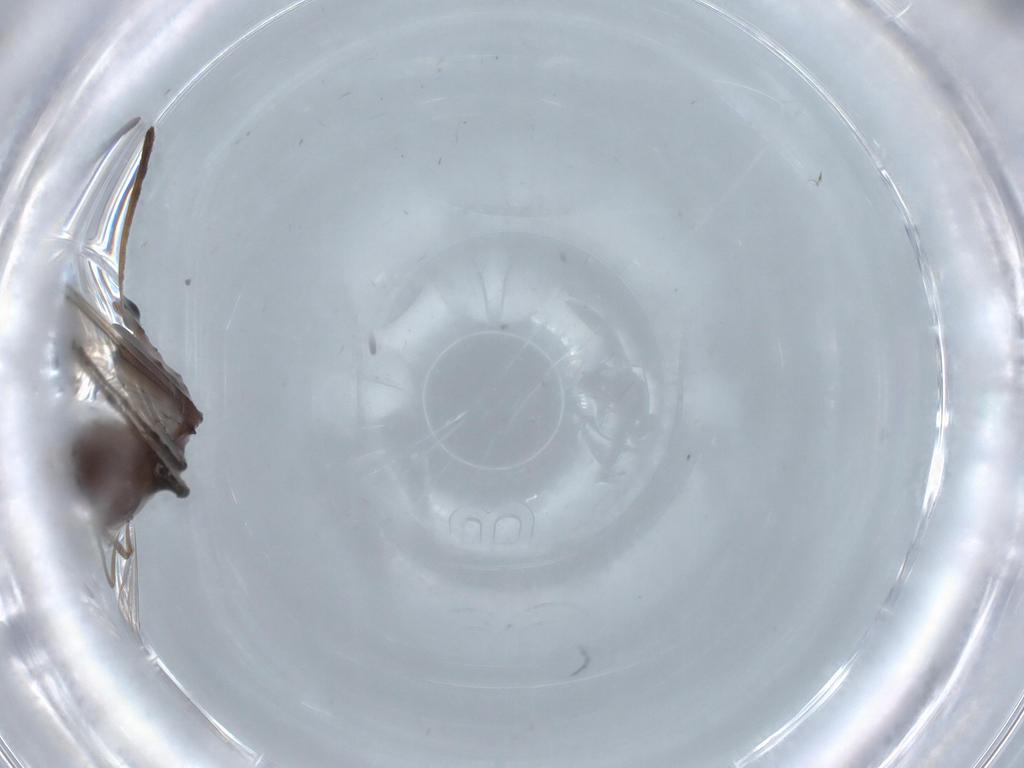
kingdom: Animalia
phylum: Arthropoda
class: Insecta
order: Diptera
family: Chironomidae
